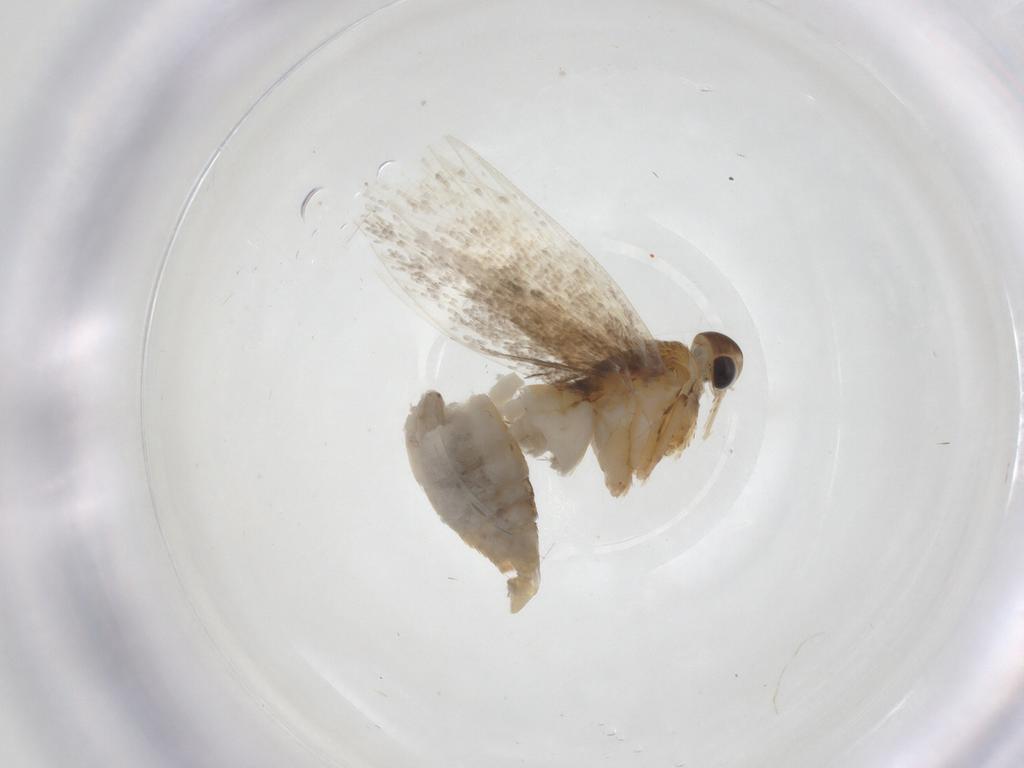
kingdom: Animalia
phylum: Arthropoda
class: Insecta
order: Lepidoptera
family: Oecophoridae
